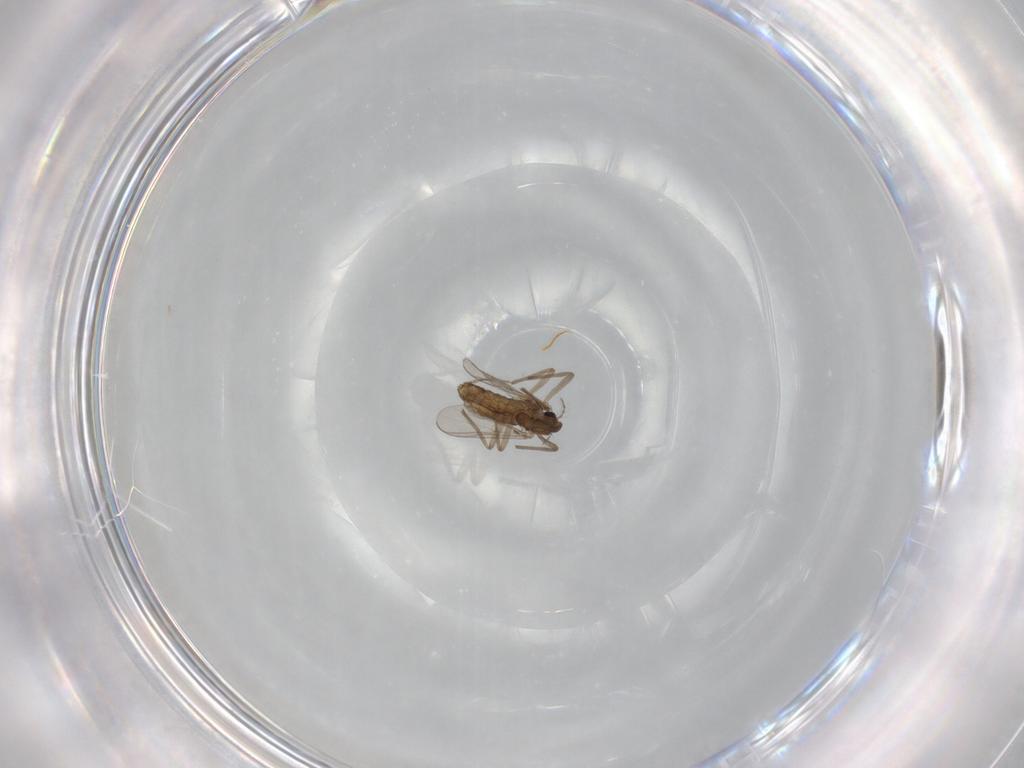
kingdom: Animalia
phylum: Arthropoda
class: Insecta
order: Diptera
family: Chironomidae
